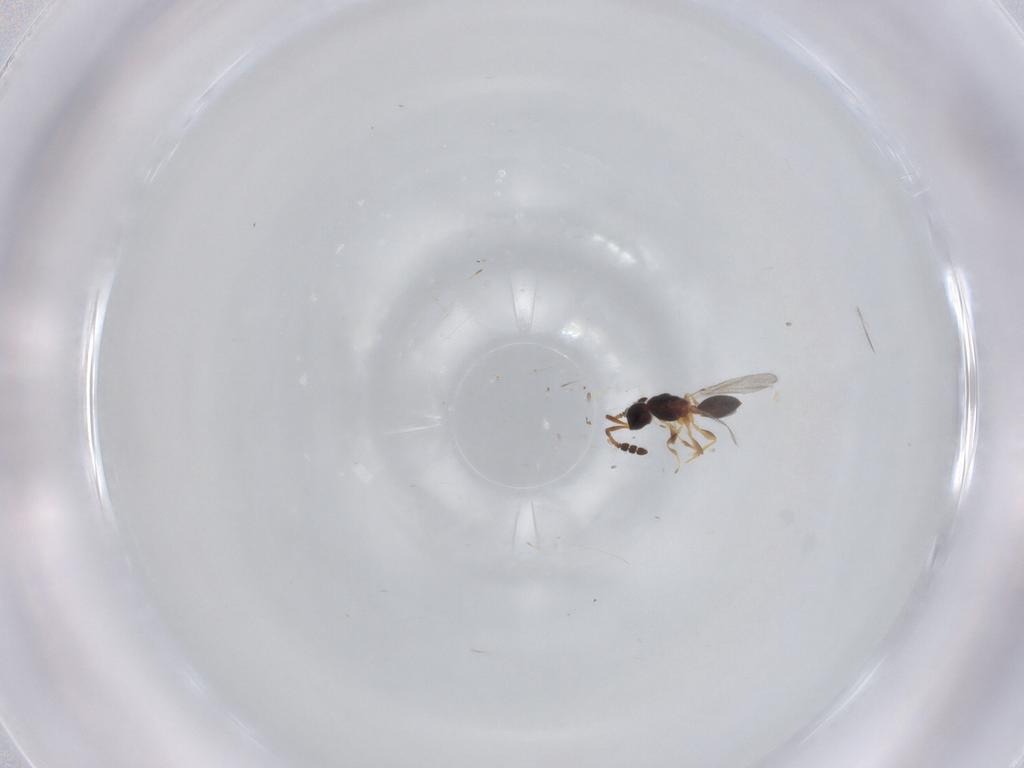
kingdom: Animalia
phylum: Arthropoda
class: Insecta
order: Hymenoptera
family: Diapriidae
